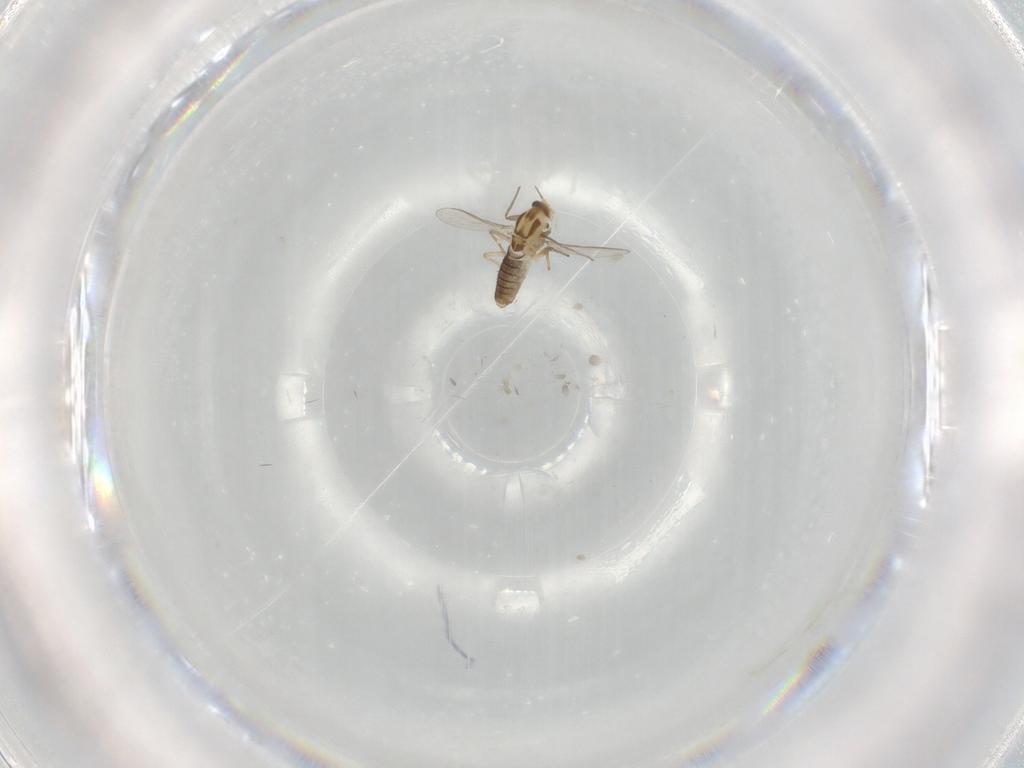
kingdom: Animalia
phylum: Arthropoda
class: Insecta
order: Diptera
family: Chironomidae
